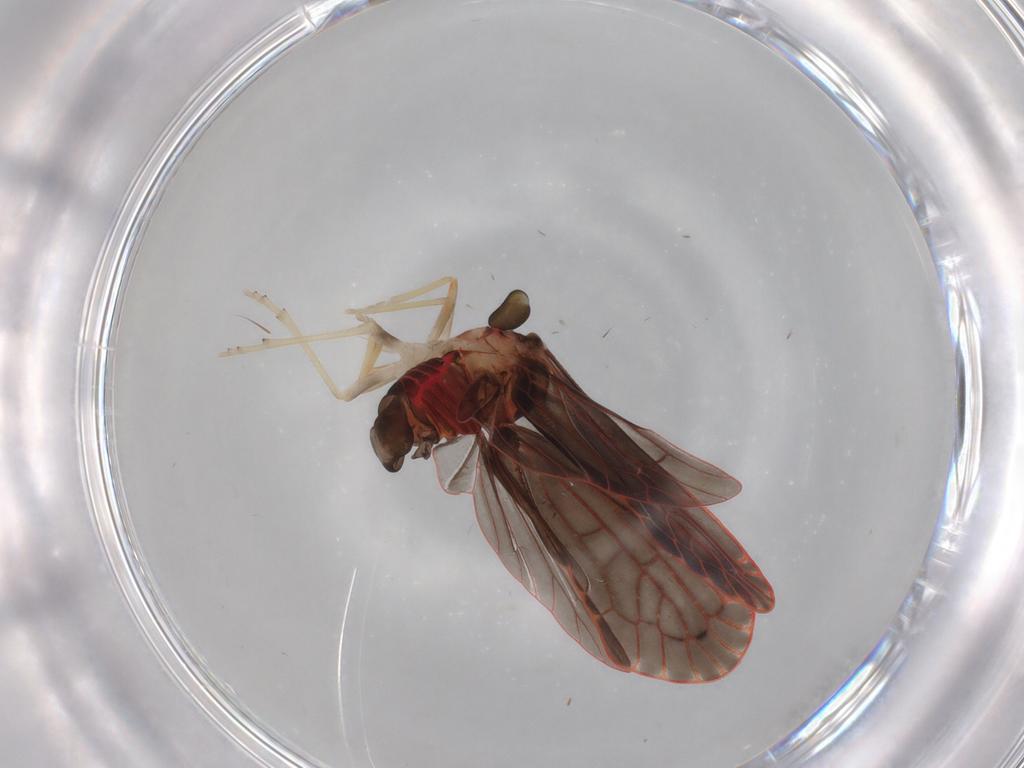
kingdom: Animalia
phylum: Arthropoda
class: Insecta
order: Hemiptera
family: Derbidae
